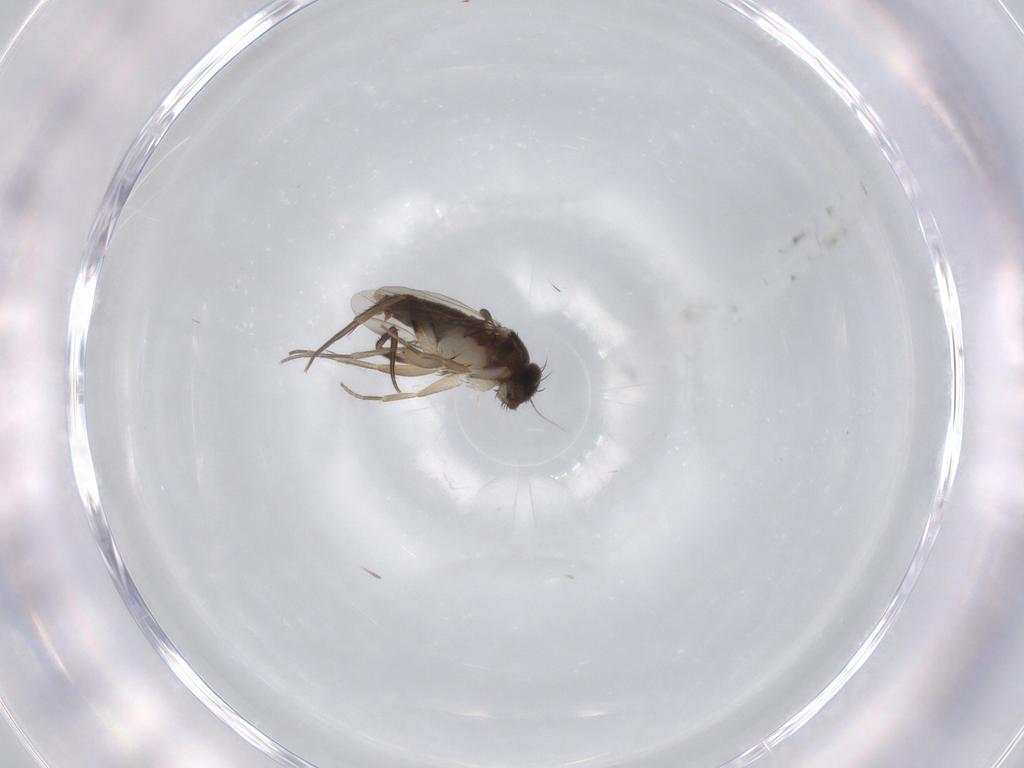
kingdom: Animalia
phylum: Arthropoda
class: Insecta
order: Diptera
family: Phoridae
